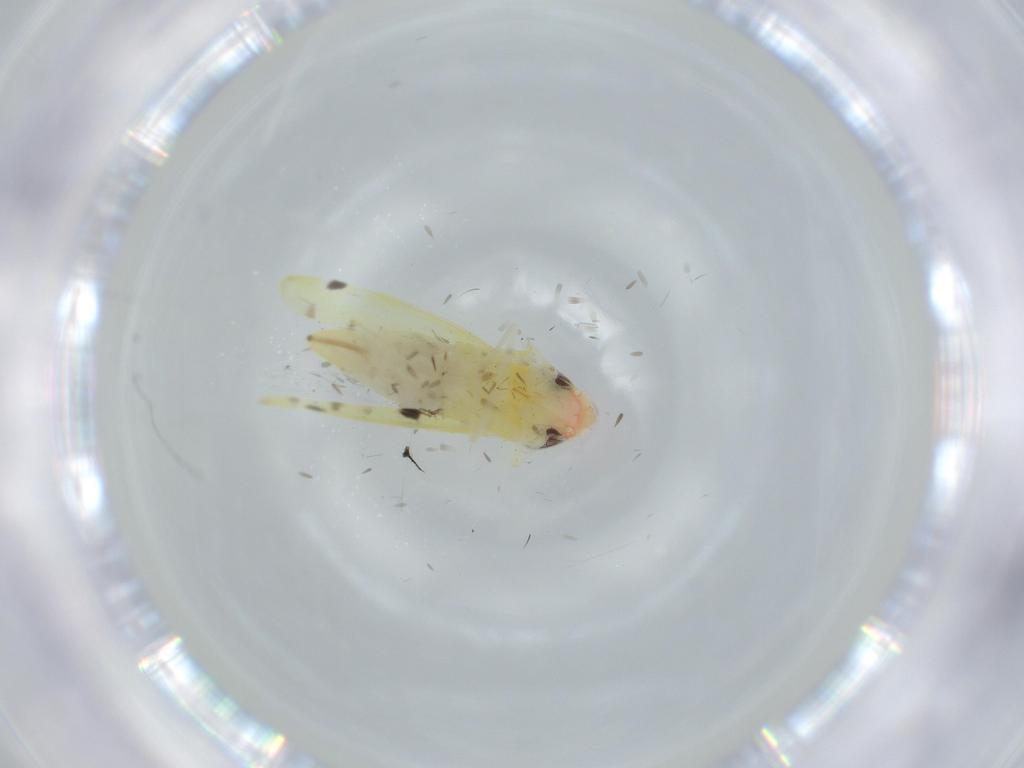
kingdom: Animalia
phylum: Arthropoda
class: Insecta
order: Hemiptera
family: Cicadellidae
